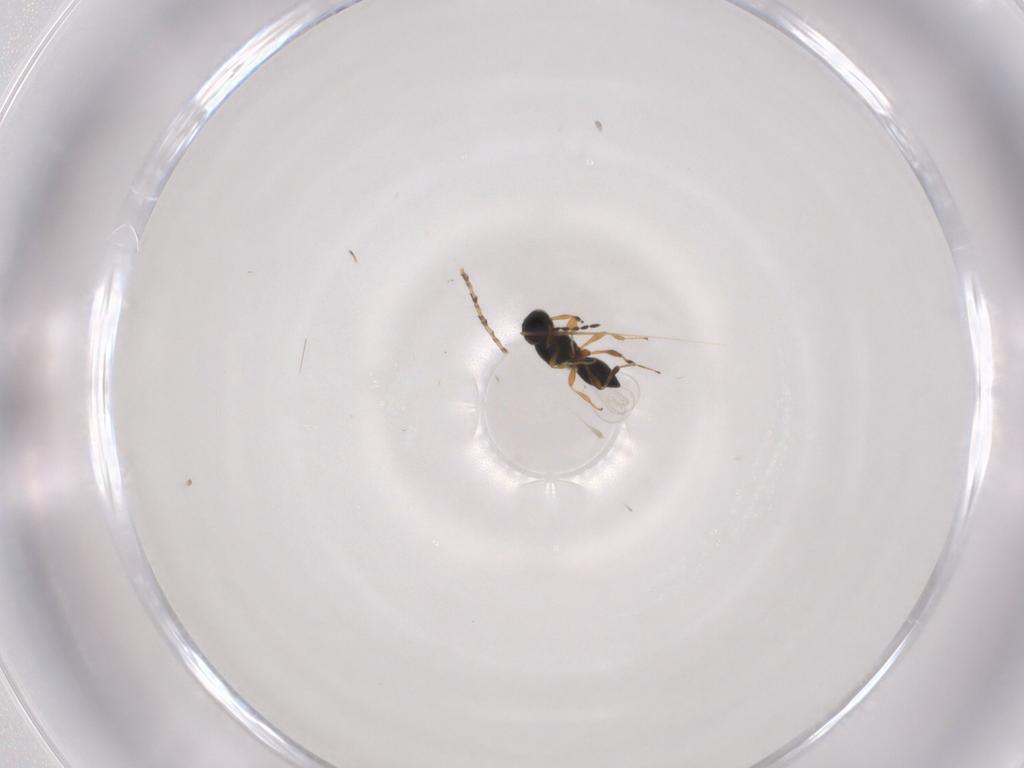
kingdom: Animalia
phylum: Arthropoda
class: Insecta
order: Hymenoptera
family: Platygastridae
